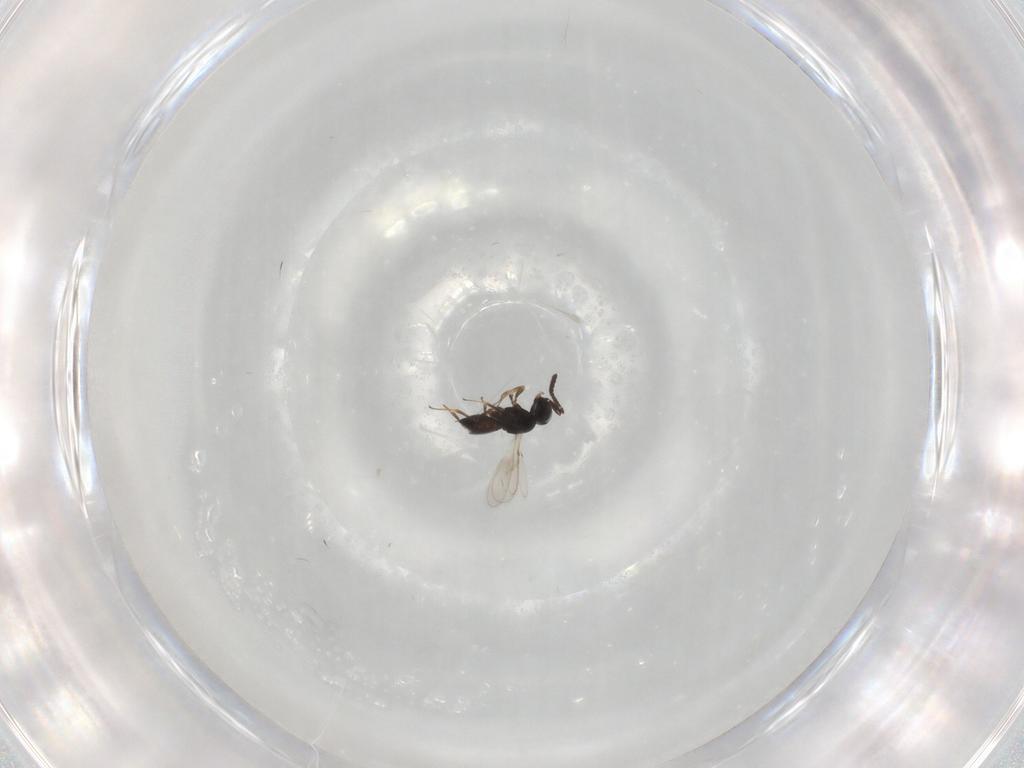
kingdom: Animalia
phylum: Arthropoda
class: Insecta
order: Hymenoptera
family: Scelionidae
